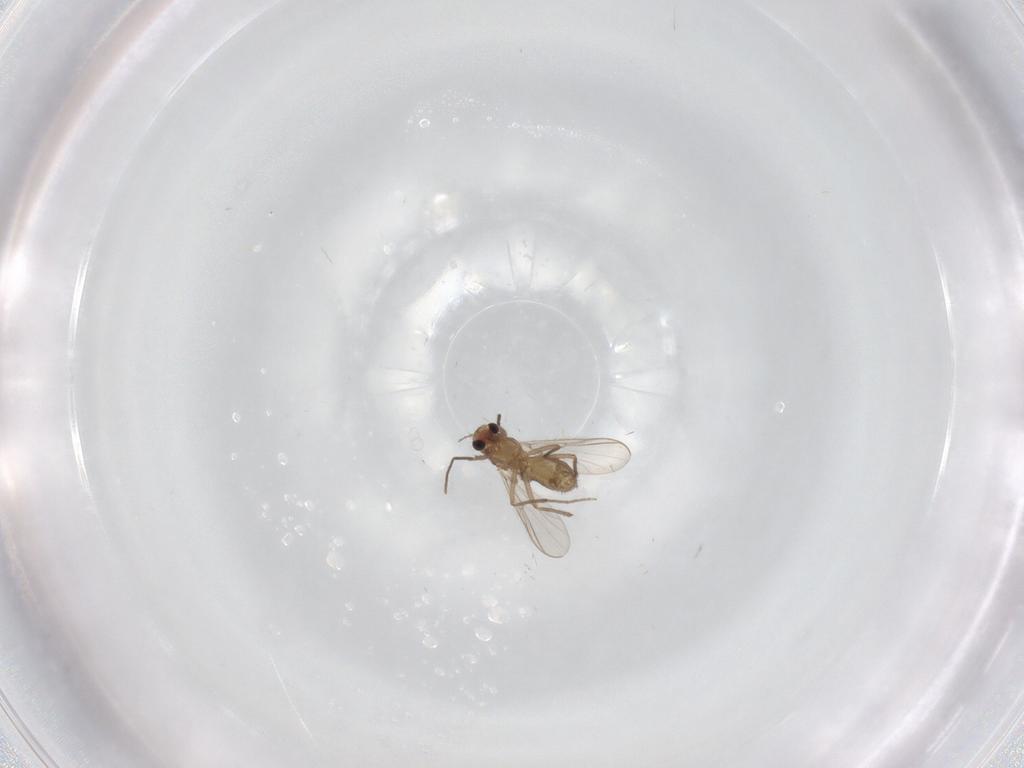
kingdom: Animalia
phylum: Arthropoda
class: Insecta
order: Diptera
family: Chironomidae
